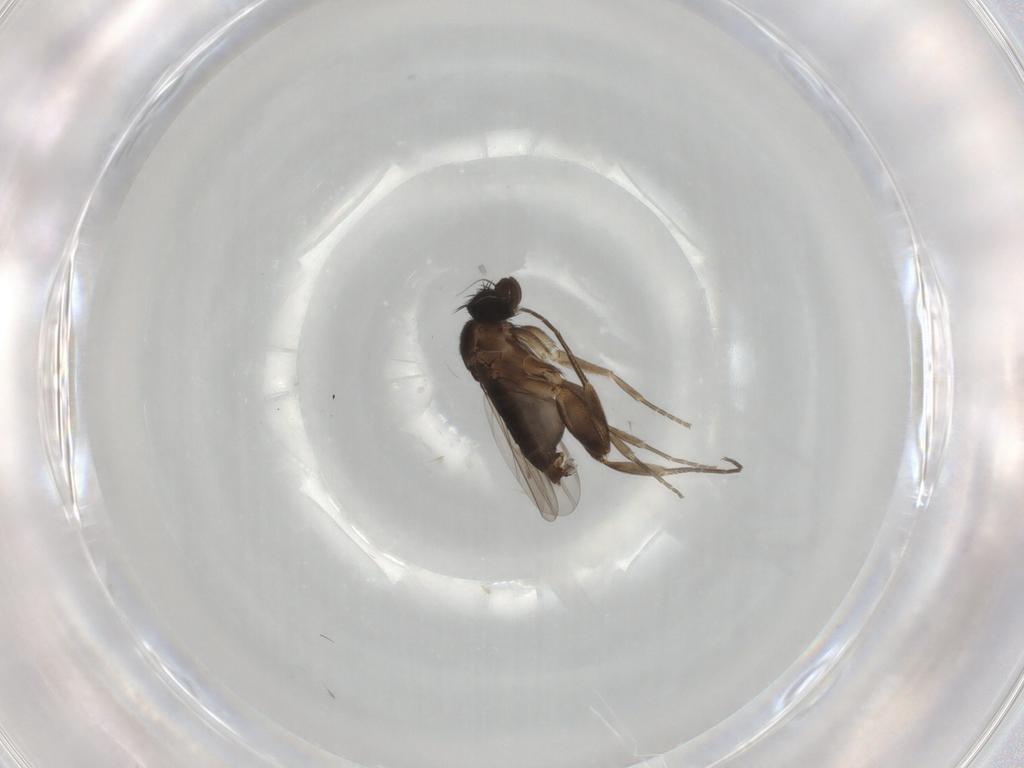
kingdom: Animalia
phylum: Arthropoda
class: Insecta
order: Diptera
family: Phoridae
